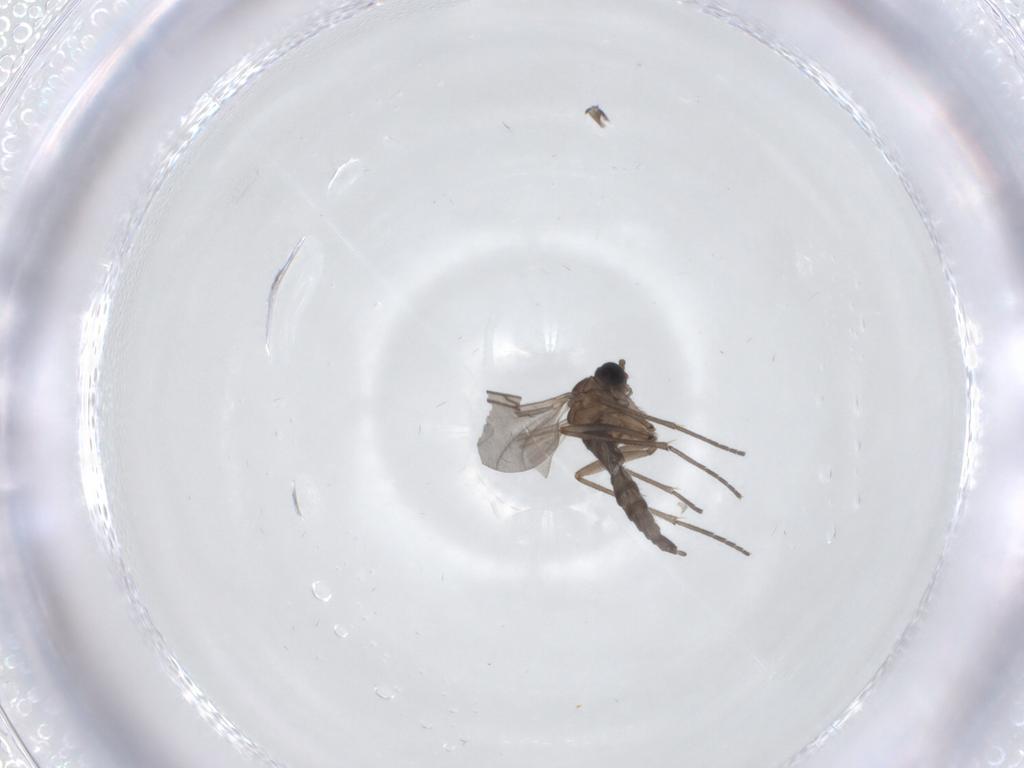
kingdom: Animalia
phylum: Arthropoda
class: Insecta
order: Diptera
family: Sciaridae
